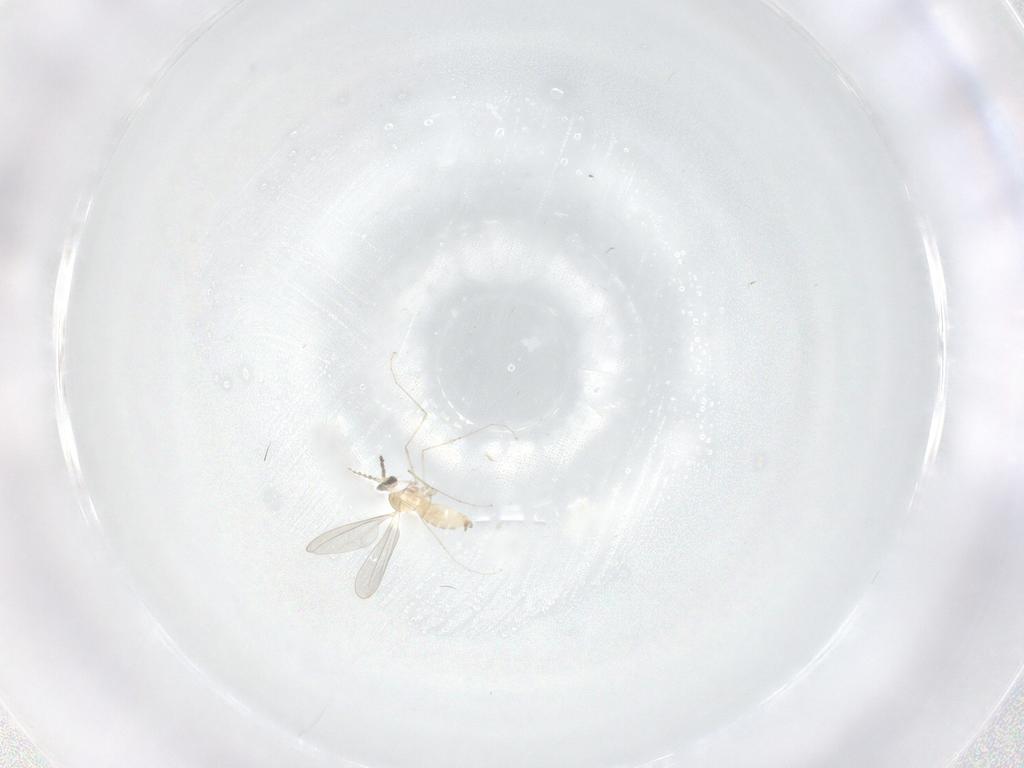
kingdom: Animalia
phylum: Arthropoda
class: Insecta
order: Diptera
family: Cecidomyiidae
